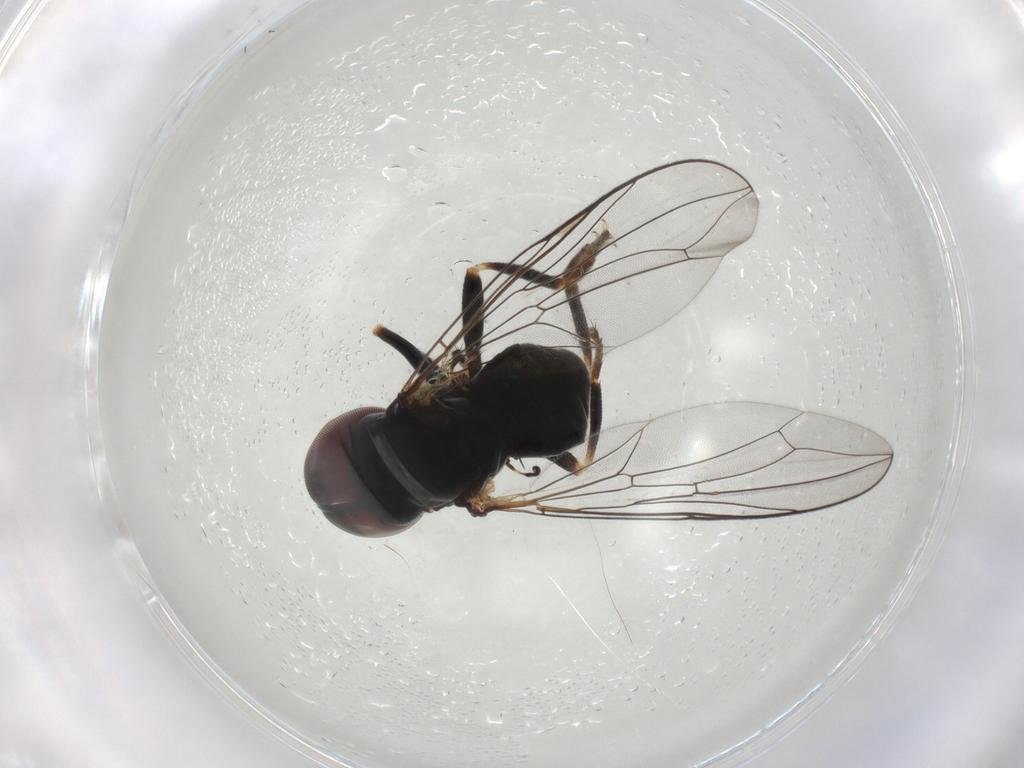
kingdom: Animalia
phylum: Arthropoda
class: Insecta
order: Diptera
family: Pipunculidae
